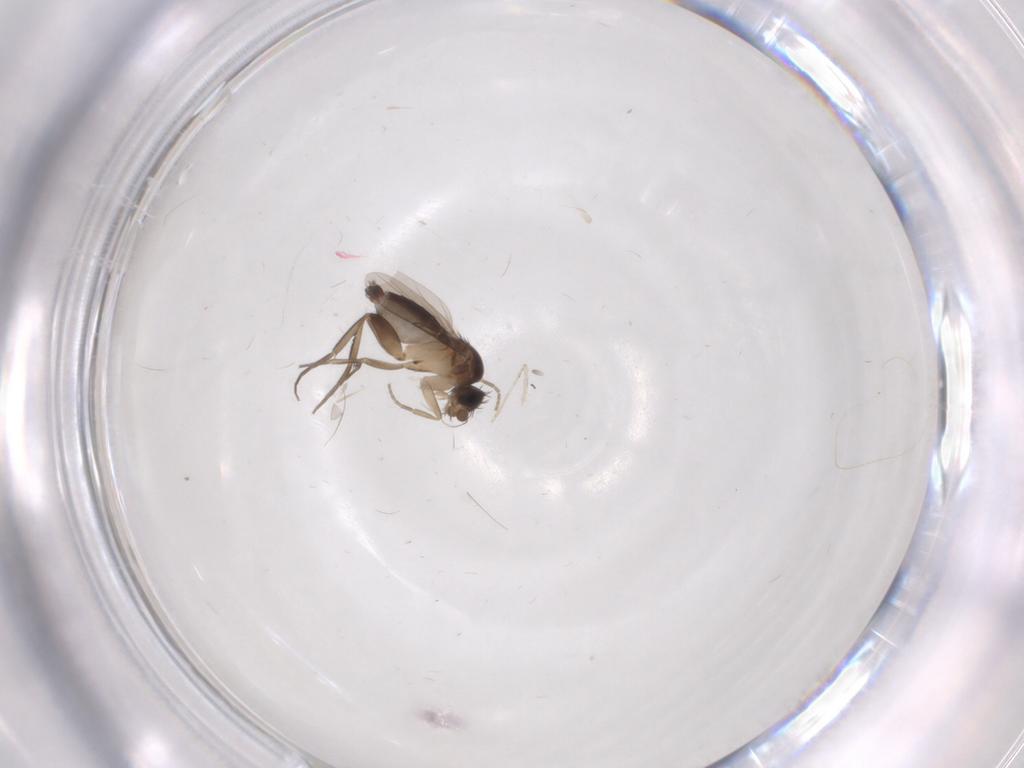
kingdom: Animalia
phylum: Arthropoda
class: Insecta
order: Diptera
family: Phoridae
